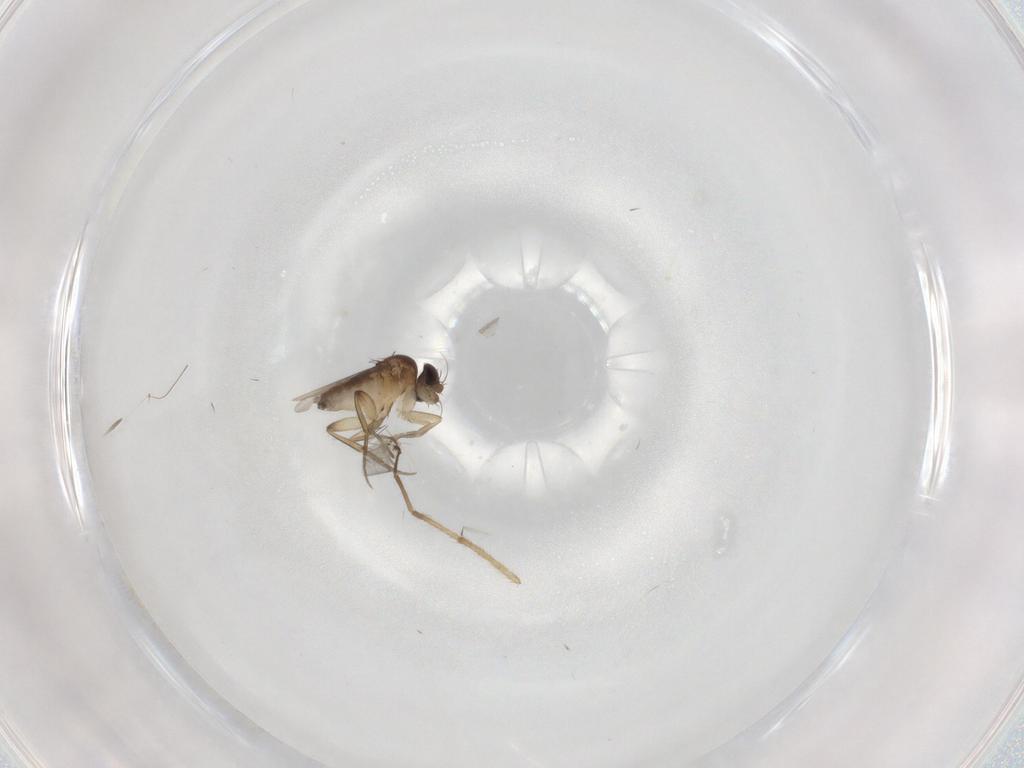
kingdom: Animalia
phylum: Arthropoda
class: Insecta
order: Diptera
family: Phoridae
